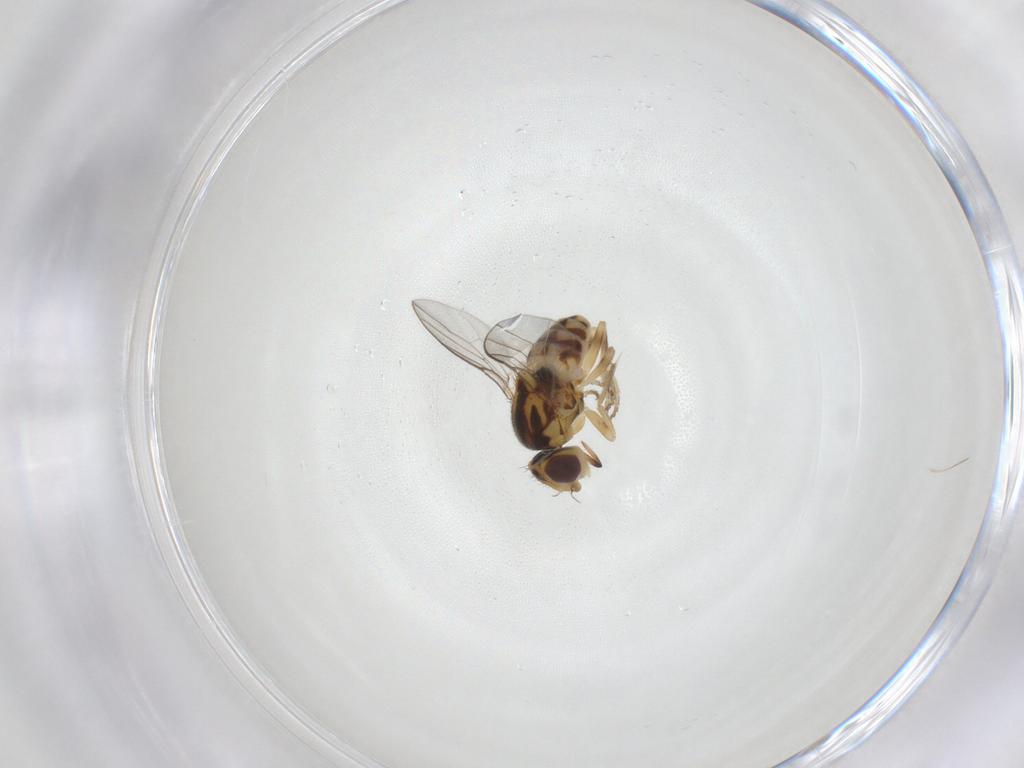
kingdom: Animalia
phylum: Arthropoda
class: Insecta
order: Diptera
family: Chloropidae
